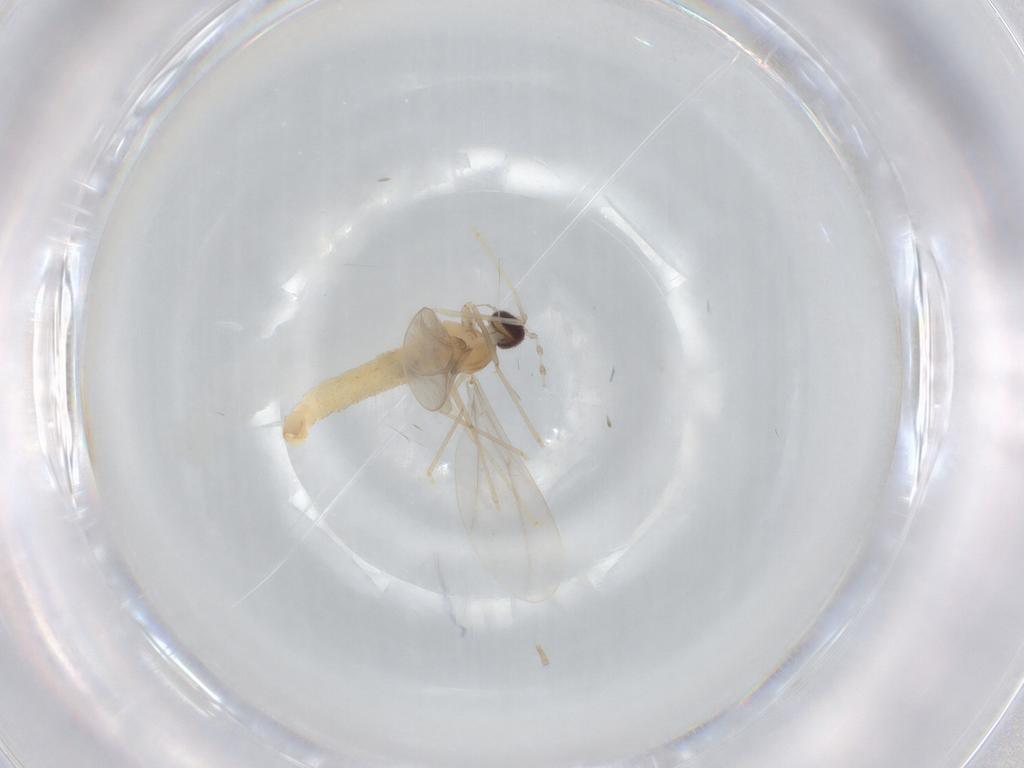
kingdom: Animalia
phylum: Arthropoda
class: Insecta
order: Diptera
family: Cecidomyiidae
